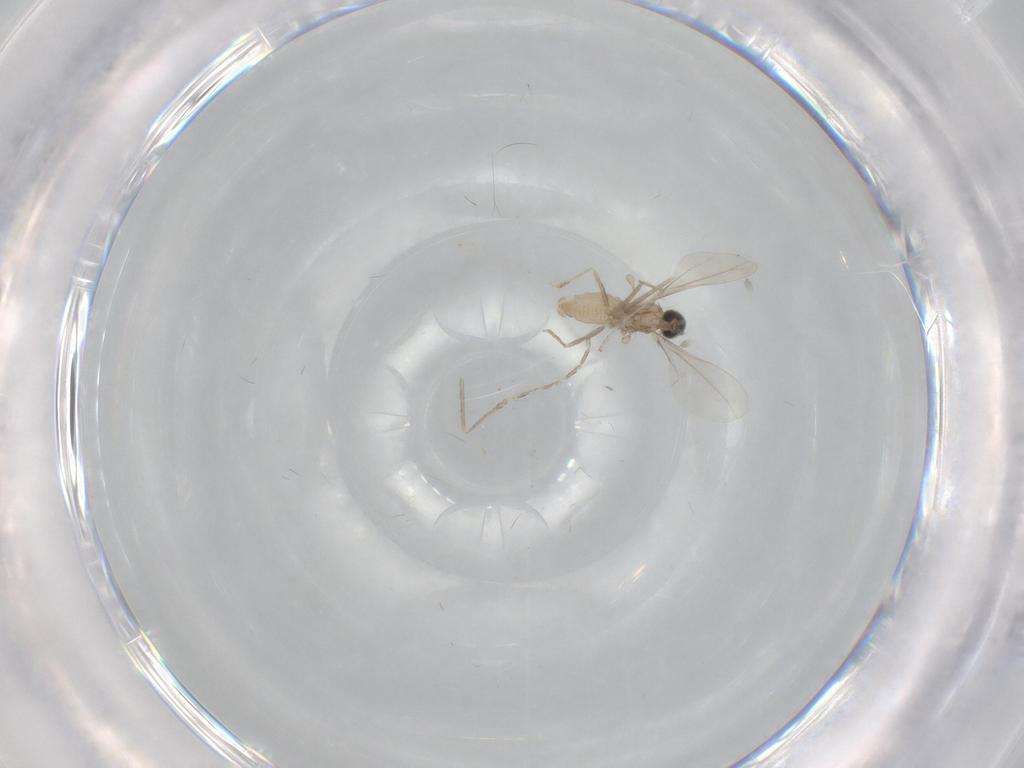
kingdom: Animalia
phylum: Arthropoda
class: Insecta
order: Diptera
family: Cecidomyiidae
